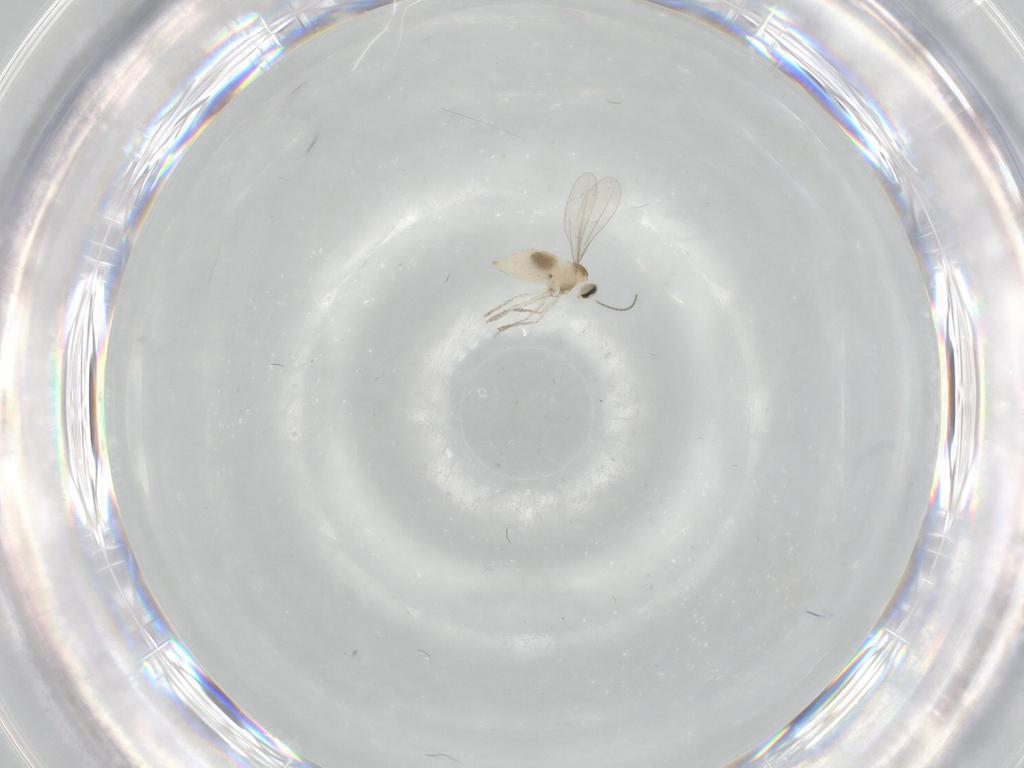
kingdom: Animalia
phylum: Arthropoda
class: Insecta
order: Diptera
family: Cecidomyiidae
